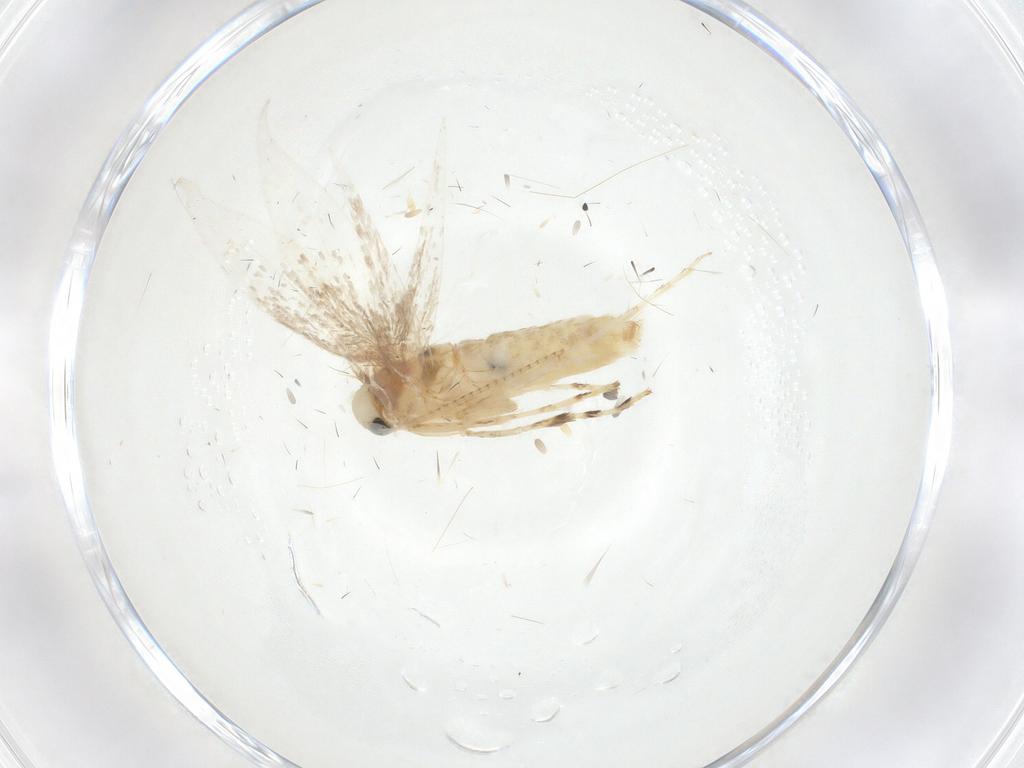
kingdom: Animalia
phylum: Arthropoda
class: Insecta
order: Lepidoptera
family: Gracillariidae
